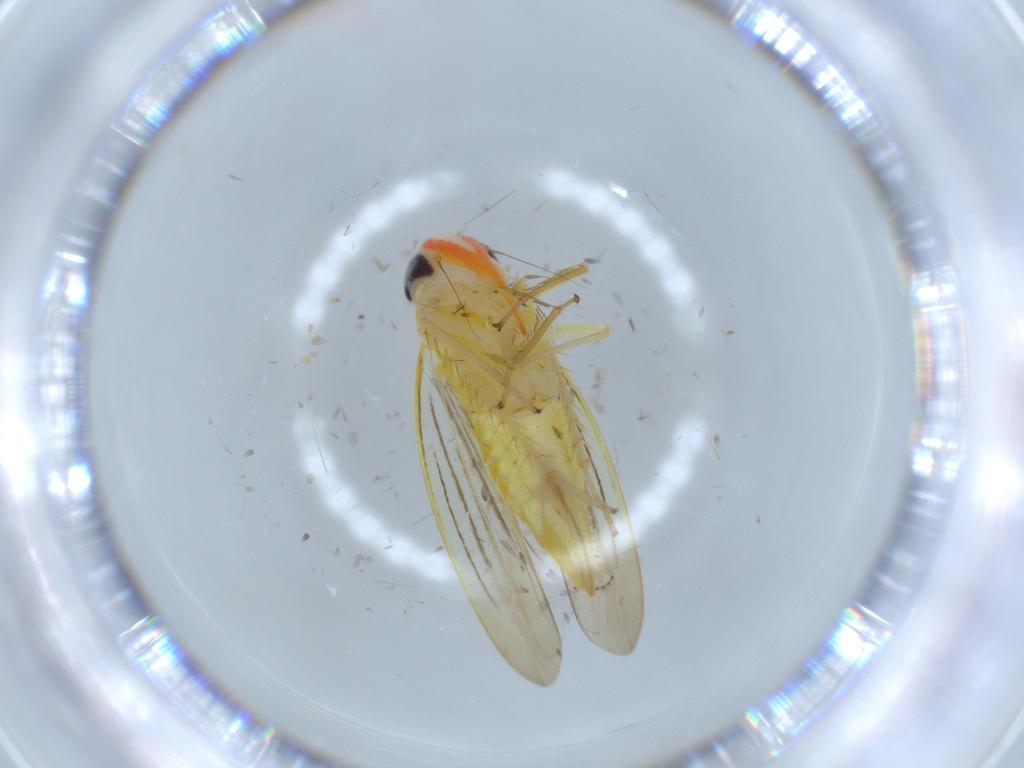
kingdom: Animalia
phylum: Arthropoda
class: Insecta
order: Hemiptera
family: Cicadellidae
